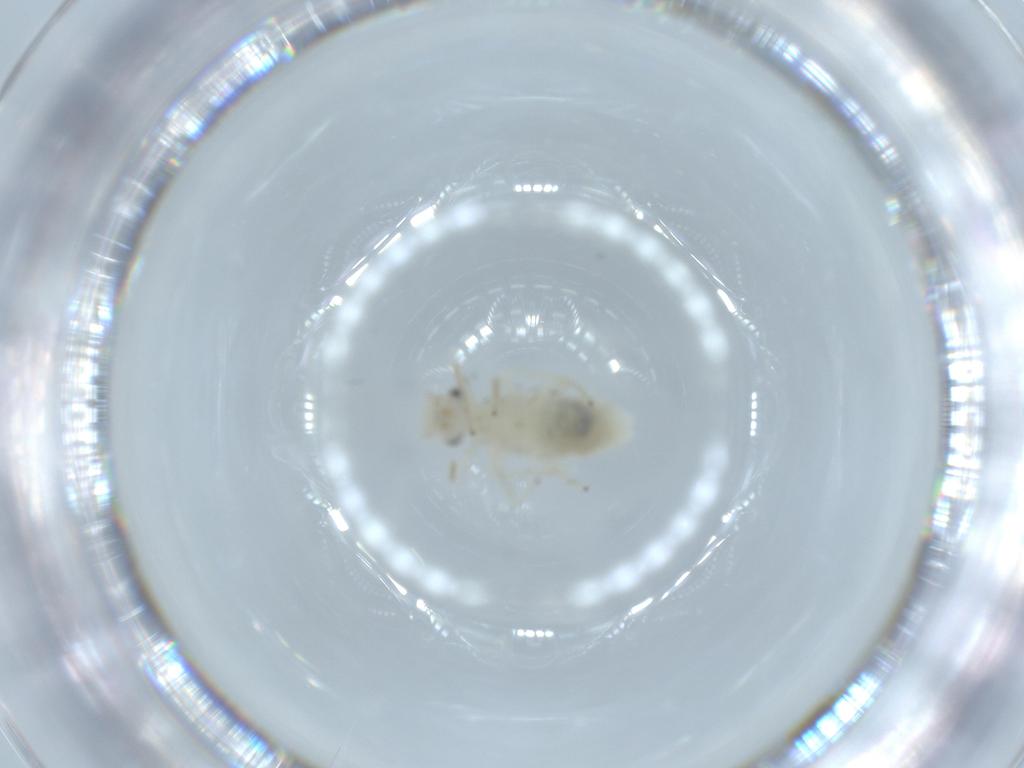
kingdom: Animalia
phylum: Arthropoda
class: Insecta
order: Psocodea
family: Caeciliusidae
